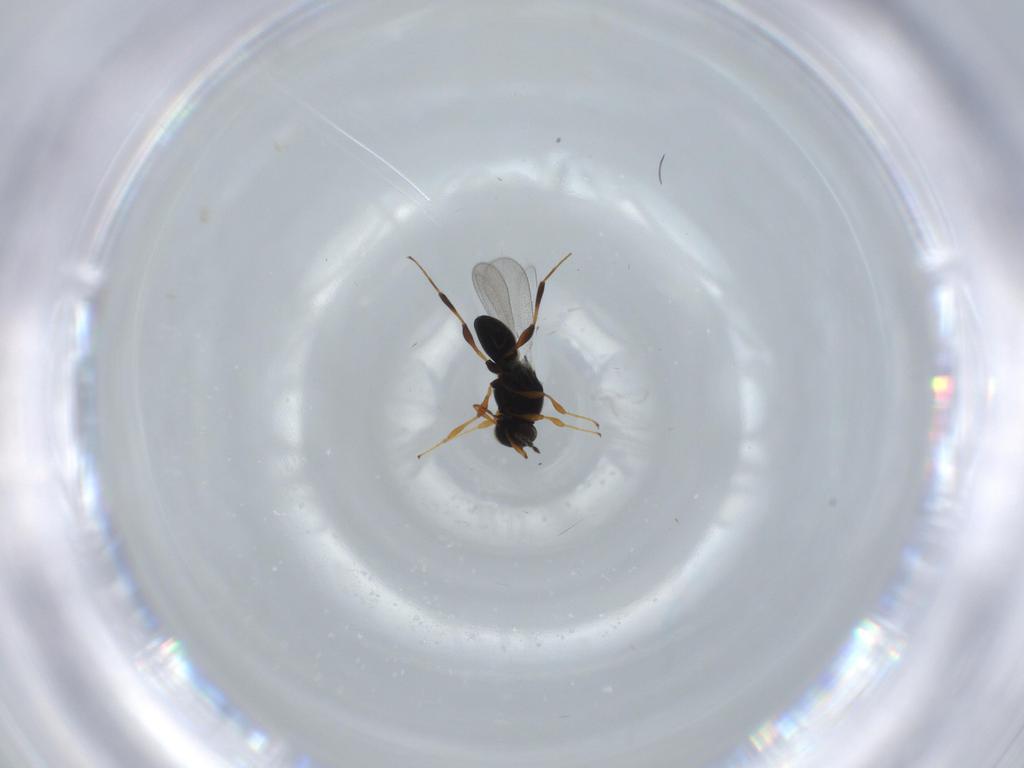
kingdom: Animalia
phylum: Arthropoda
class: Insecta
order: Hymenoptera
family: Platygastridae
